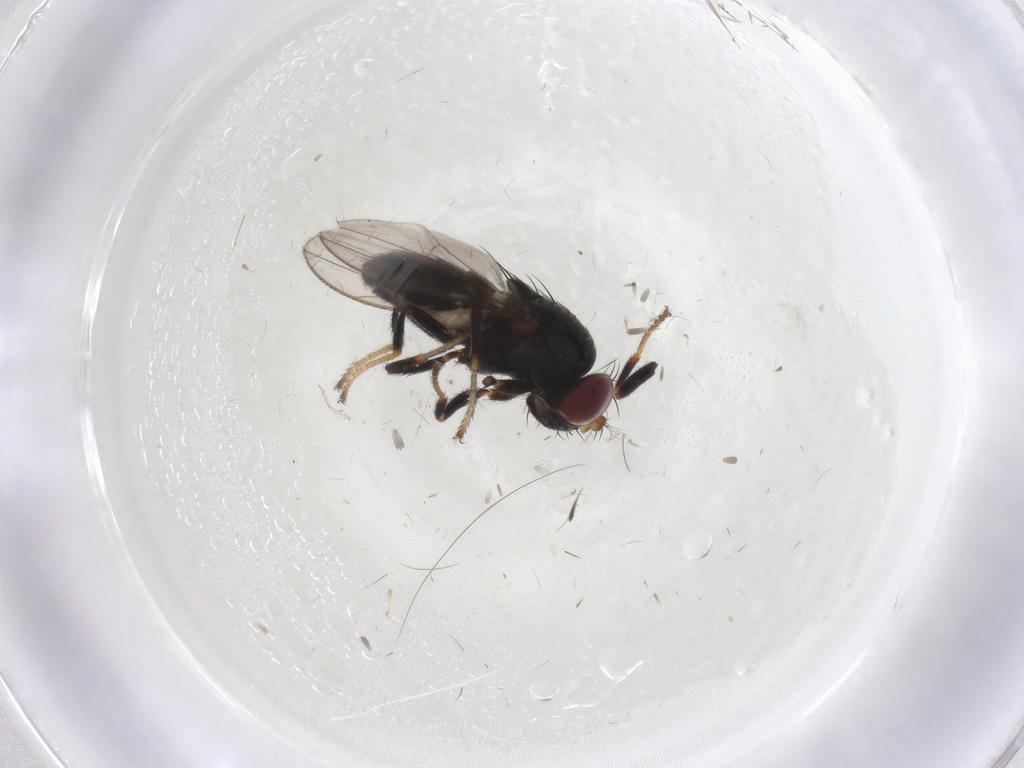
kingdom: Animalia
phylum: Arthropoda
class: Insecta
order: Diptera
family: Ephydridae
